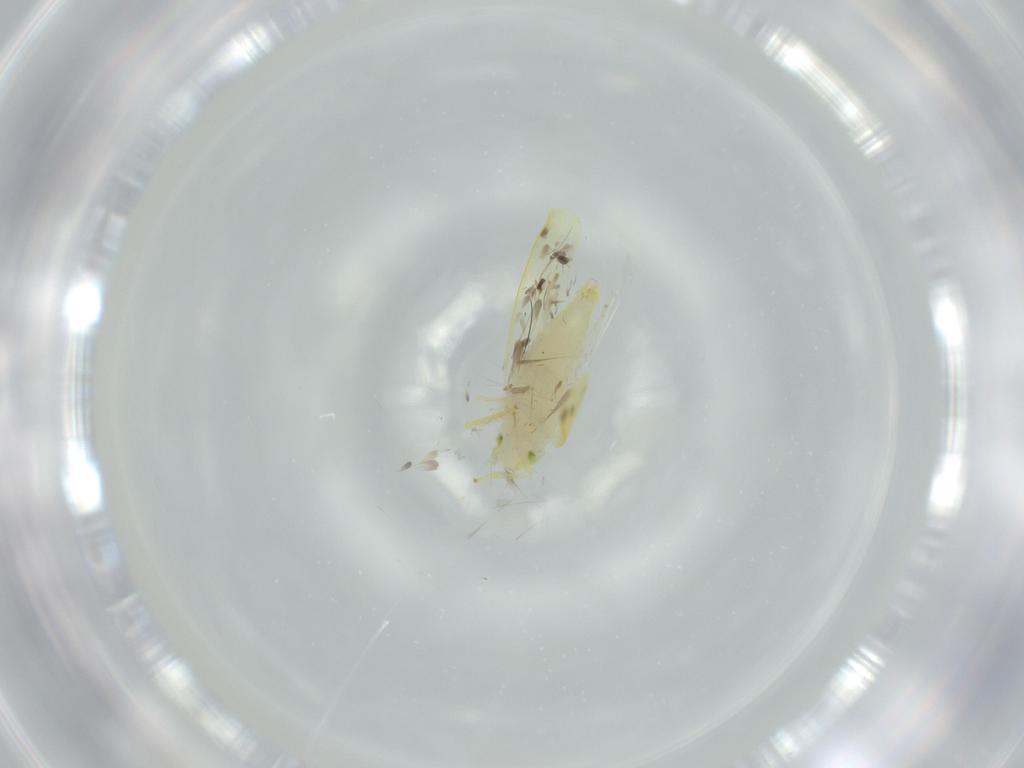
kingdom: Animalia
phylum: Arthropoda
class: Insecta
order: Hemiptera
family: Cicadellidae
